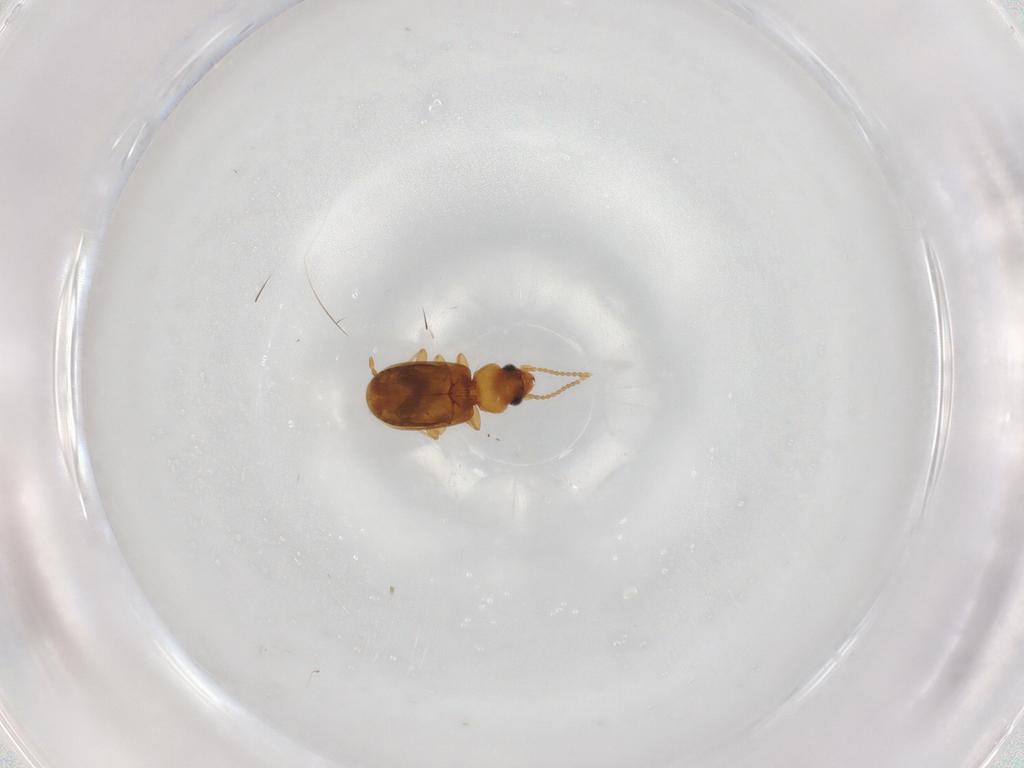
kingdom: Animalia
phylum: Arthropoda
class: Insecta
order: Coleoptera
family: Carabidae
